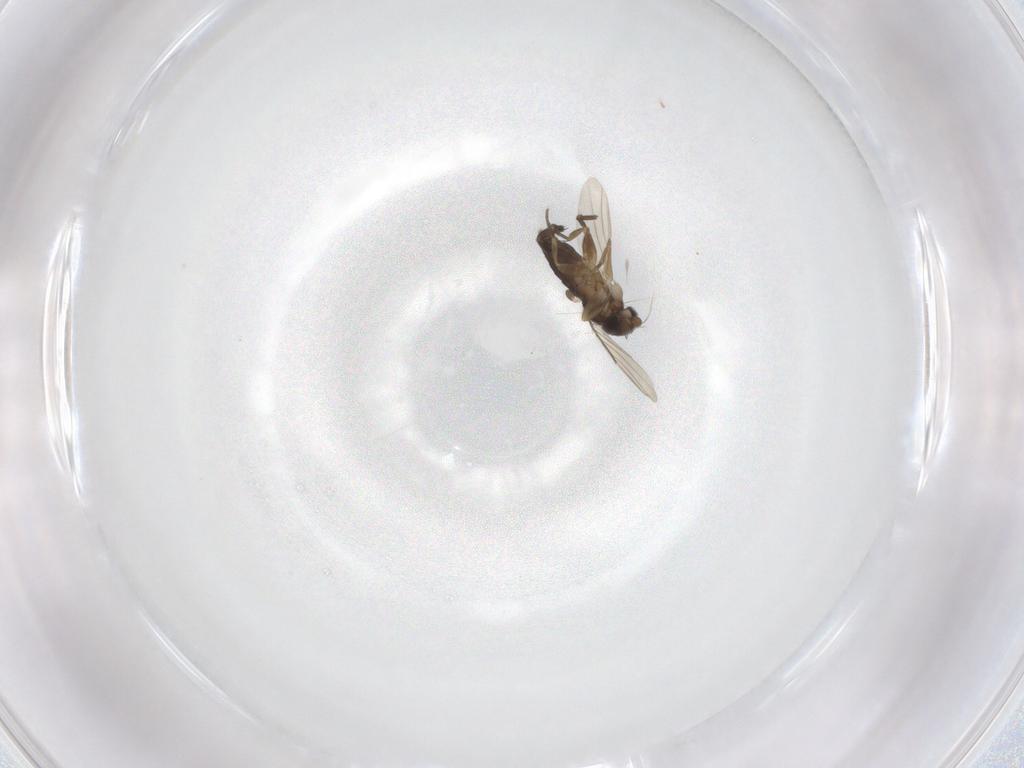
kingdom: Animalia
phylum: Arthropoda
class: Insecta
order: Diptera
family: Phoridae
